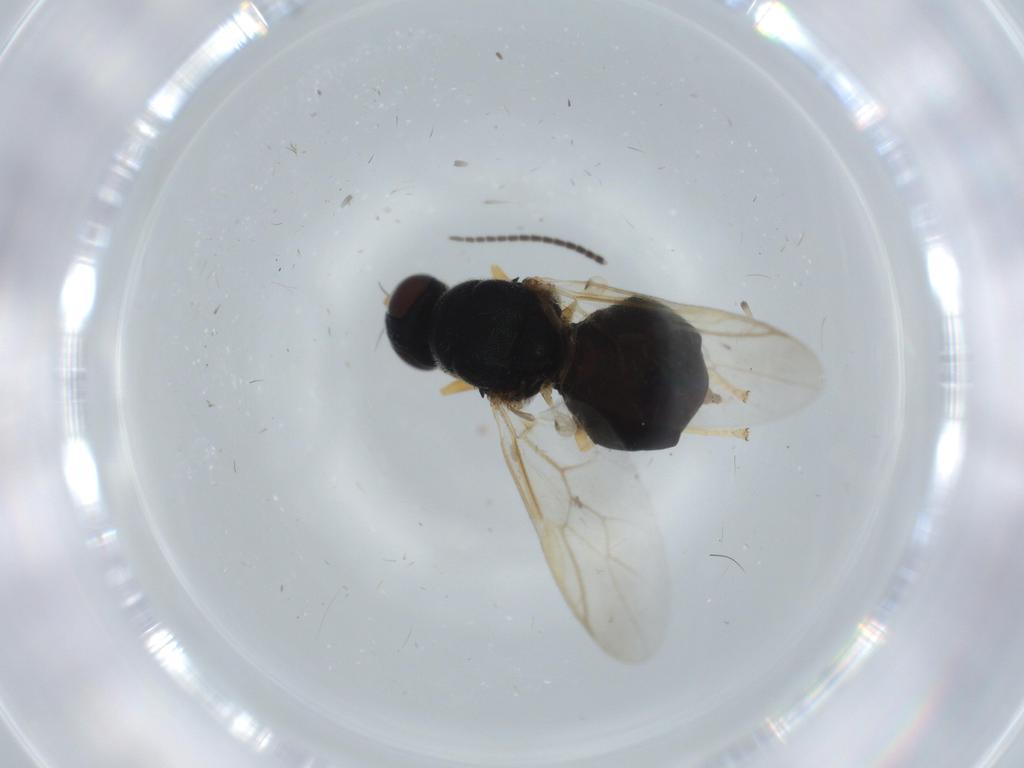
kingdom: Animalia
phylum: Arthropoda
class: Insecta
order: Diptera
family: Stratiomyidae
